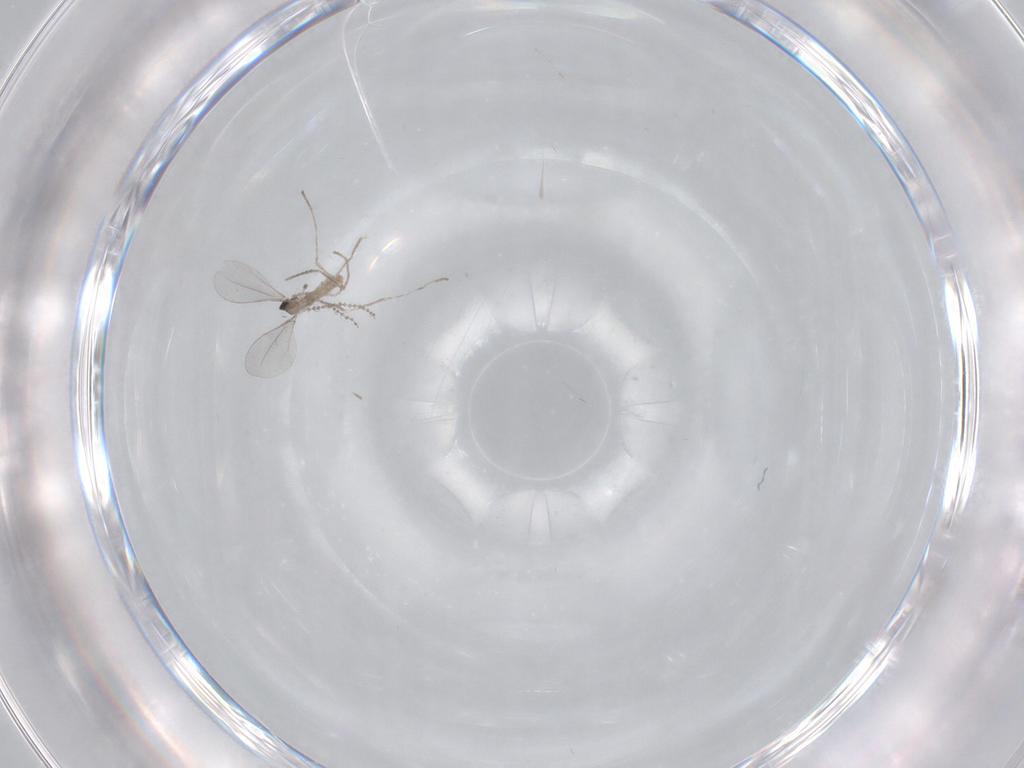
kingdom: Animalia
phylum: Arthropoda
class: Insecta
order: Diptera
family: Cecidomyiidae
